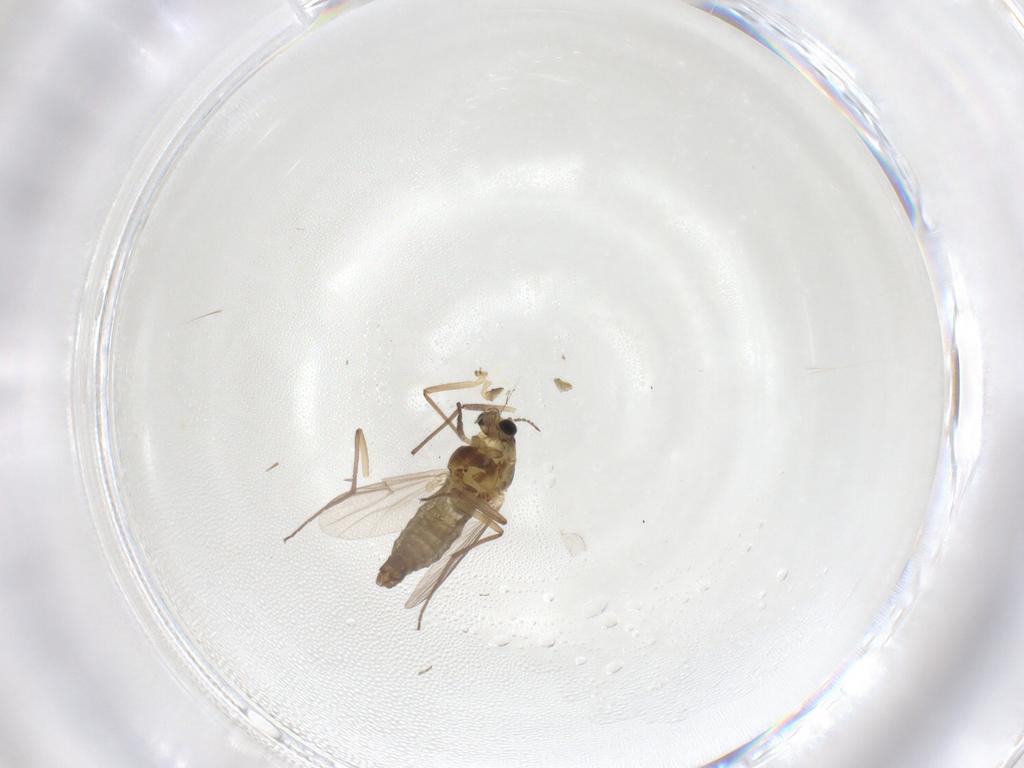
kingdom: Animalia
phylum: Arthropoda
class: Insecta
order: Diptera
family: Chironomidae
